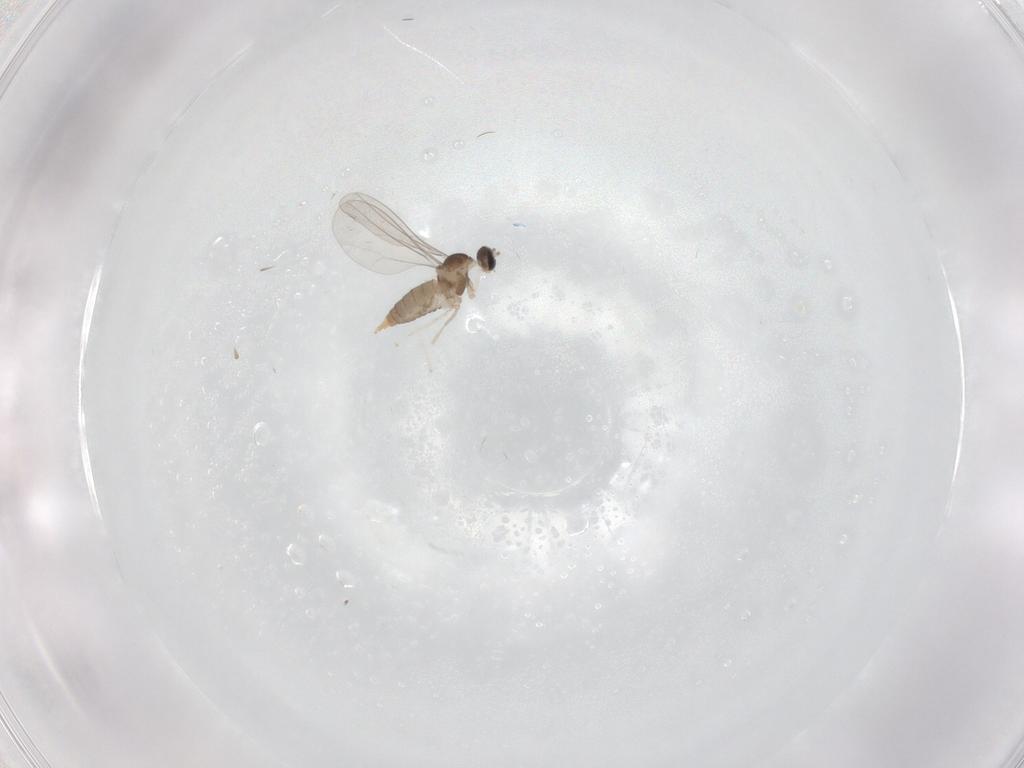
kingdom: Animalia
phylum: Arthropoda
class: Insecta
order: Diptera
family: Cecidomyiidae
